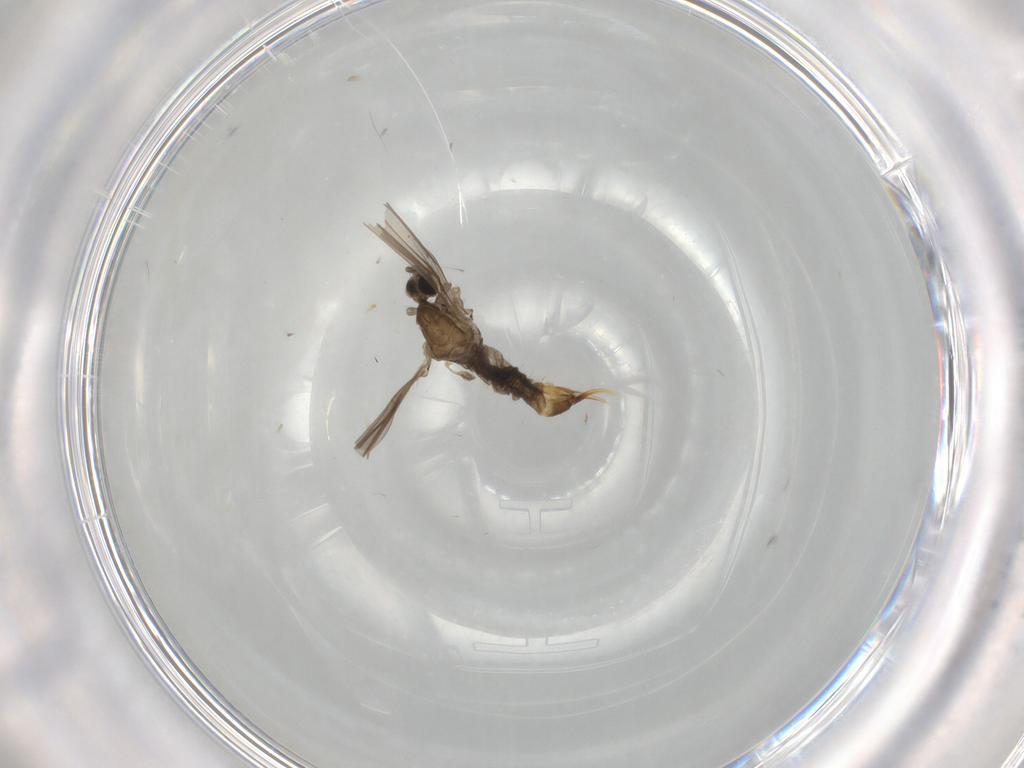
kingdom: Animalia
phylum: Arthropoda
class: Insecta
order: Diptera
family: Limoniidae
